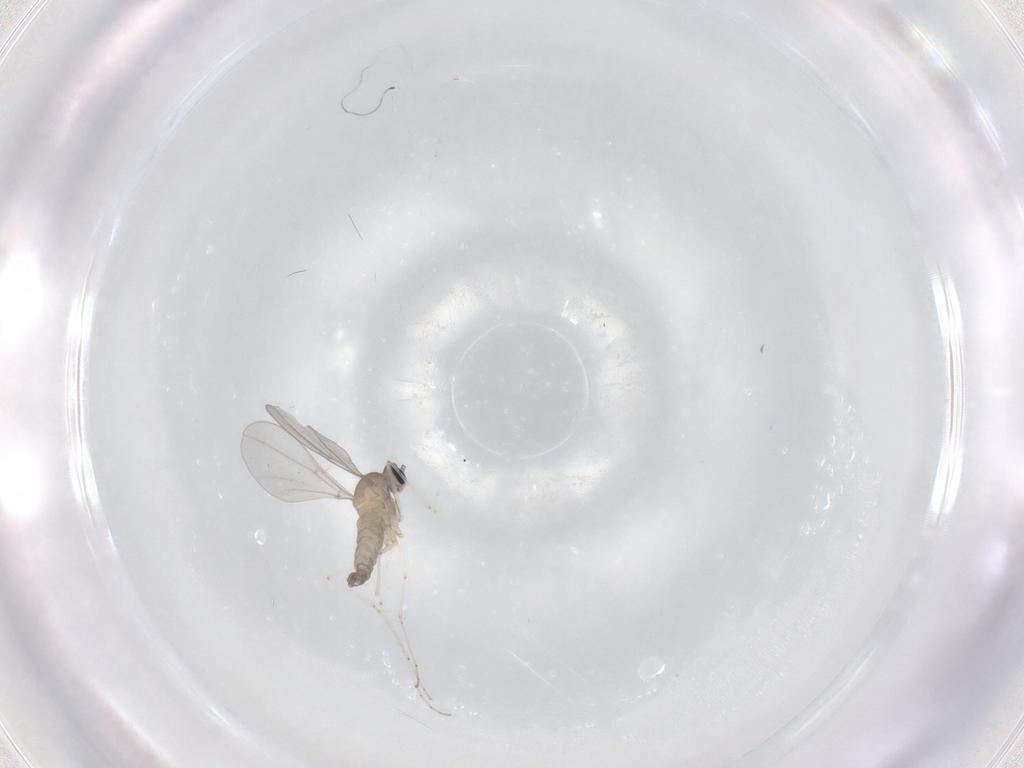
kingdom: Animalia
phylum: Arthropoda
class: Insecta
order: Diptera
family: Cecidomyiidae
